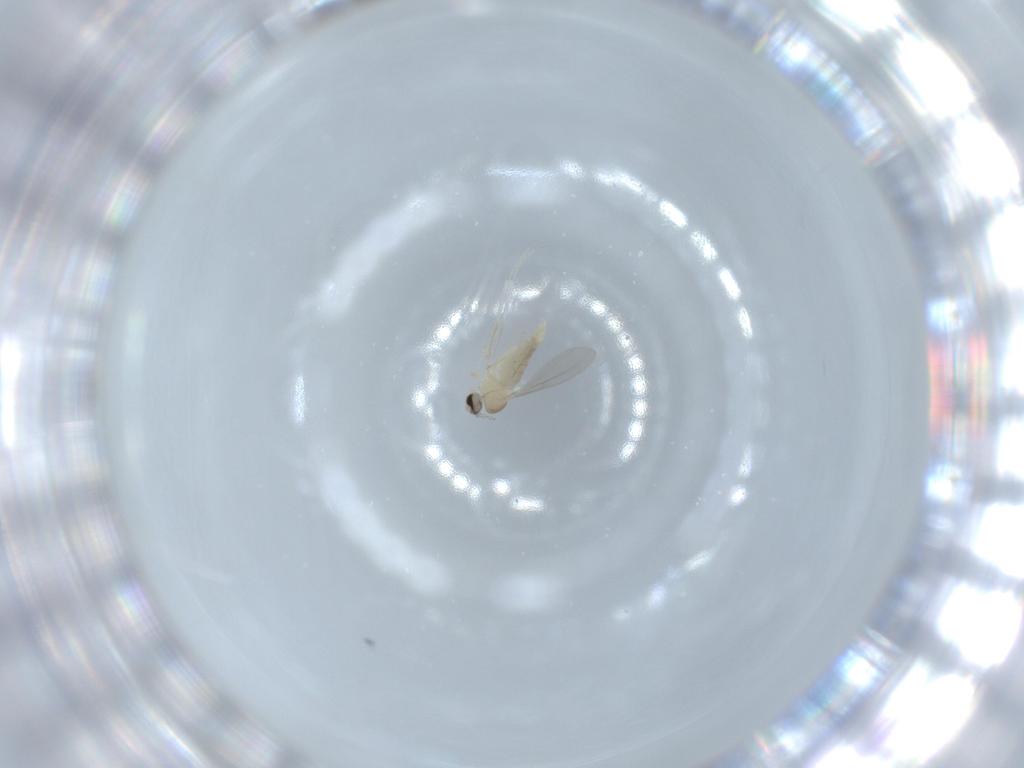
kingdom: Animalia
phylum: Arthropoda
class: Insecta
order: Diptera
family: Cecidomyiidae
